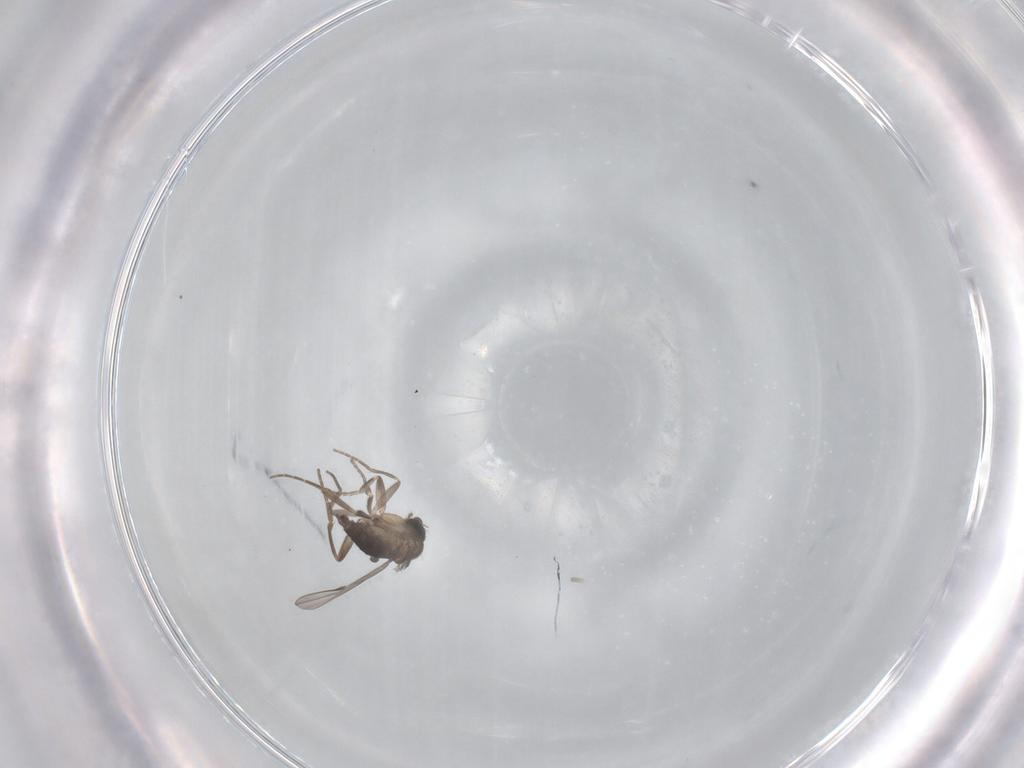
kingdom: Animalia
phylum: Arthropoda
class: Insecta
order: Diptera
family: Phoridae
